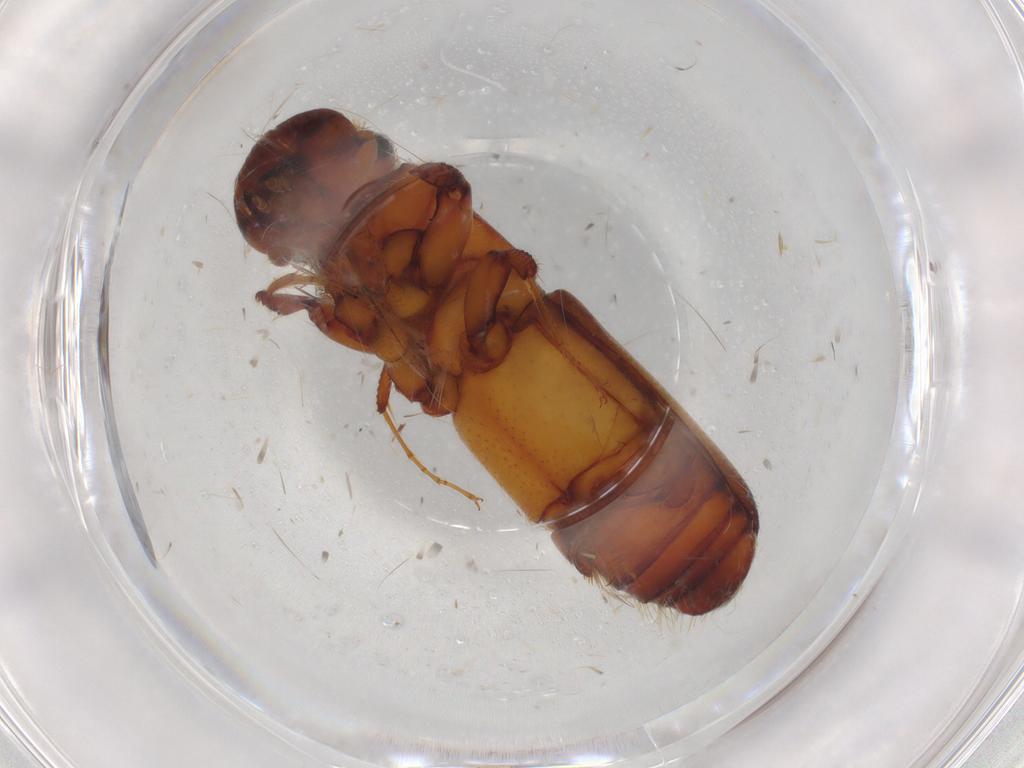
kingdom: Animalia
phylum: Arthropoda
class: Insecta
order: Coleoptera
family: Curculionidae
